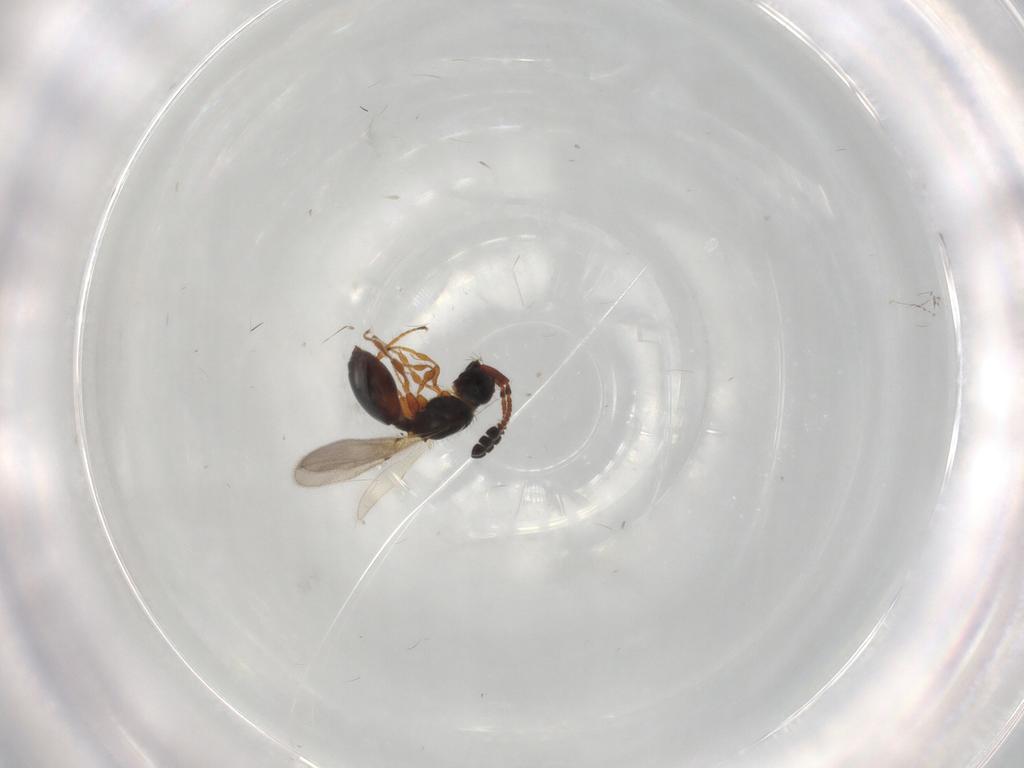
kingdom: Animalia
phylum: Arthropoda
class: Insecta
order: Hymenoptera
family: Diapriidae
